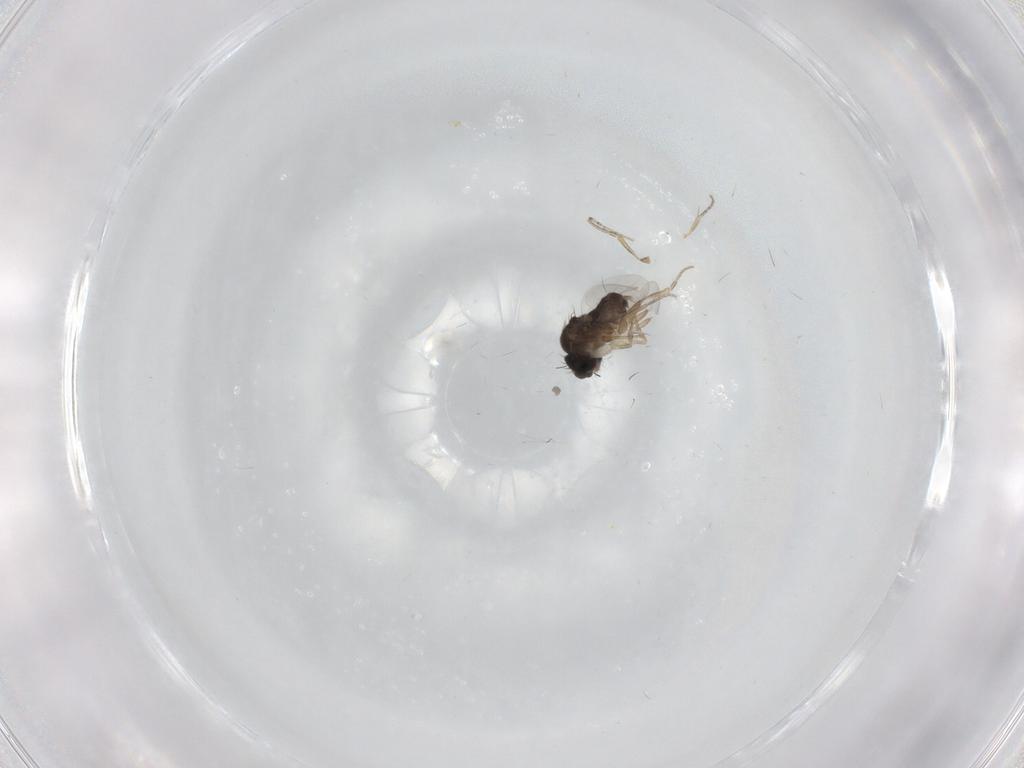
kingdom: Animalia
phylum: Arthropoda
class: Insecta
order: Diptera
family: Phoridae
